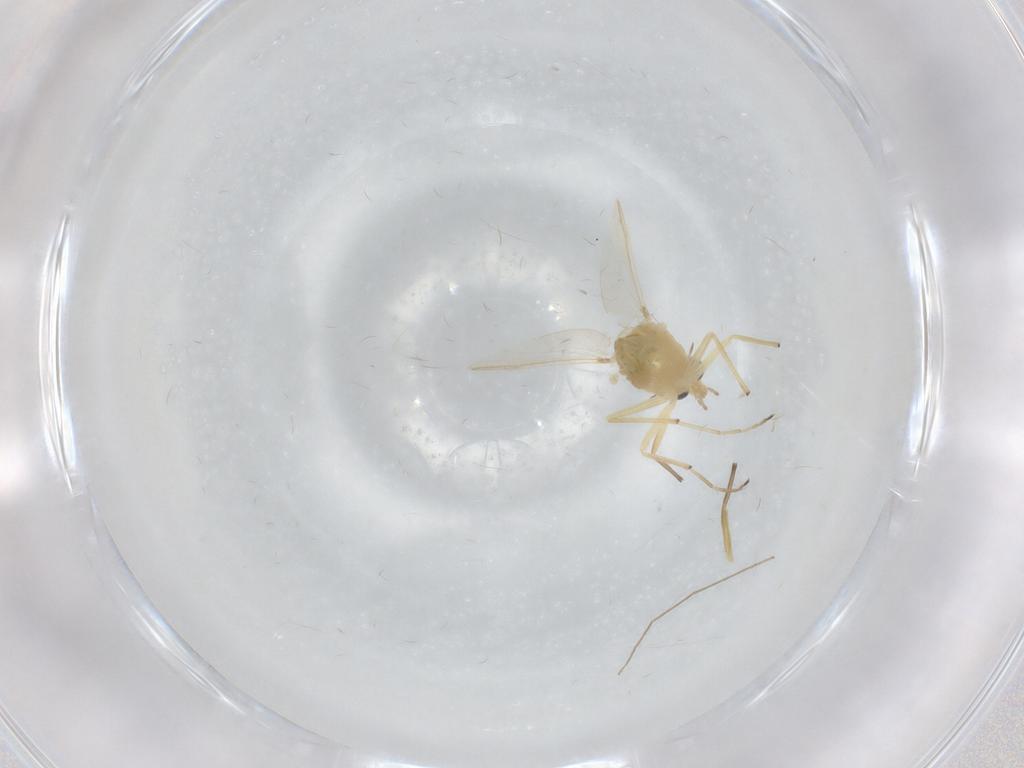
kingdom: Animalia
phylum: Arthropoda
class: Insecta
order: Diptera
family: Chironomidae
